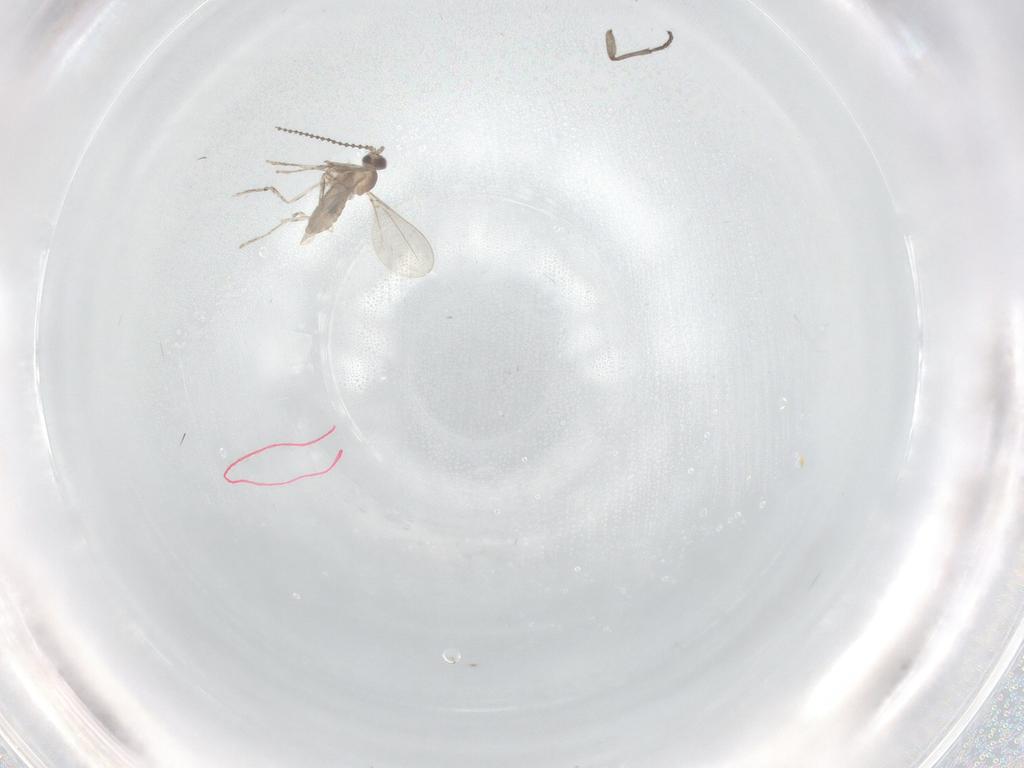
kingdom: Animalia
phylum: Arthropoda
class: Insecta
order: Diptera
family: Sciaridae
